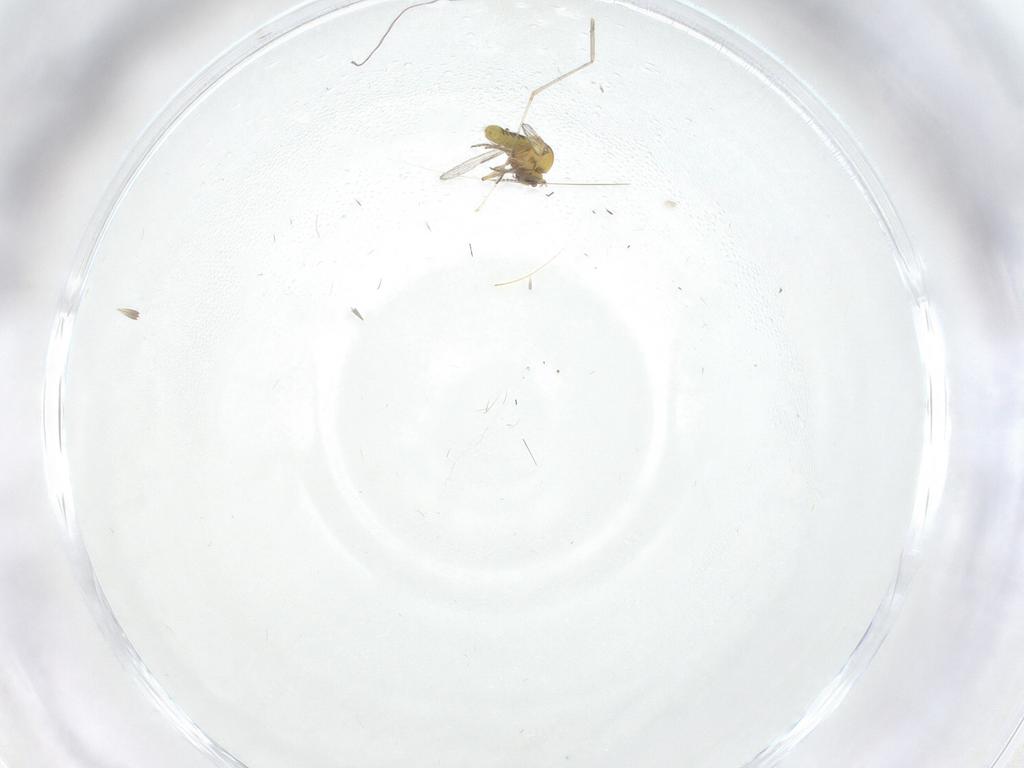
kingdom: Animalia
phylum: Arthropoda
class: Insecta
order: Diptera
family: Ceratopogonidae
